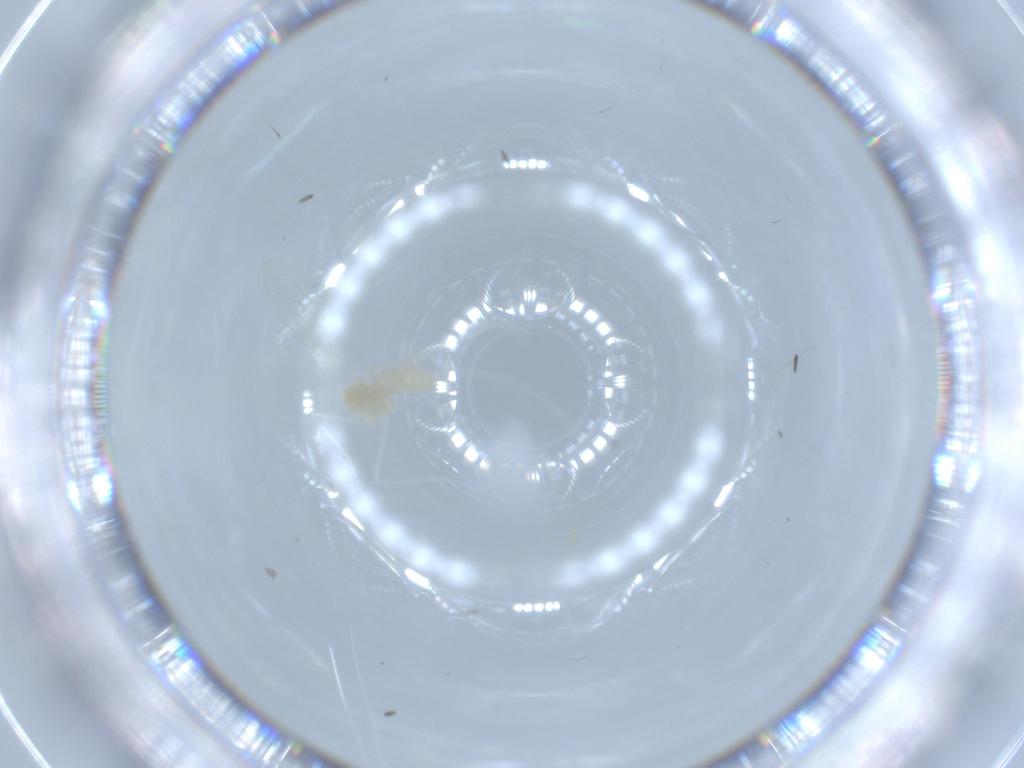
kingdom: Animalia
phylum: Arthropoda
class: Insecta
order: Diptera
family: Cecidomyiidae
